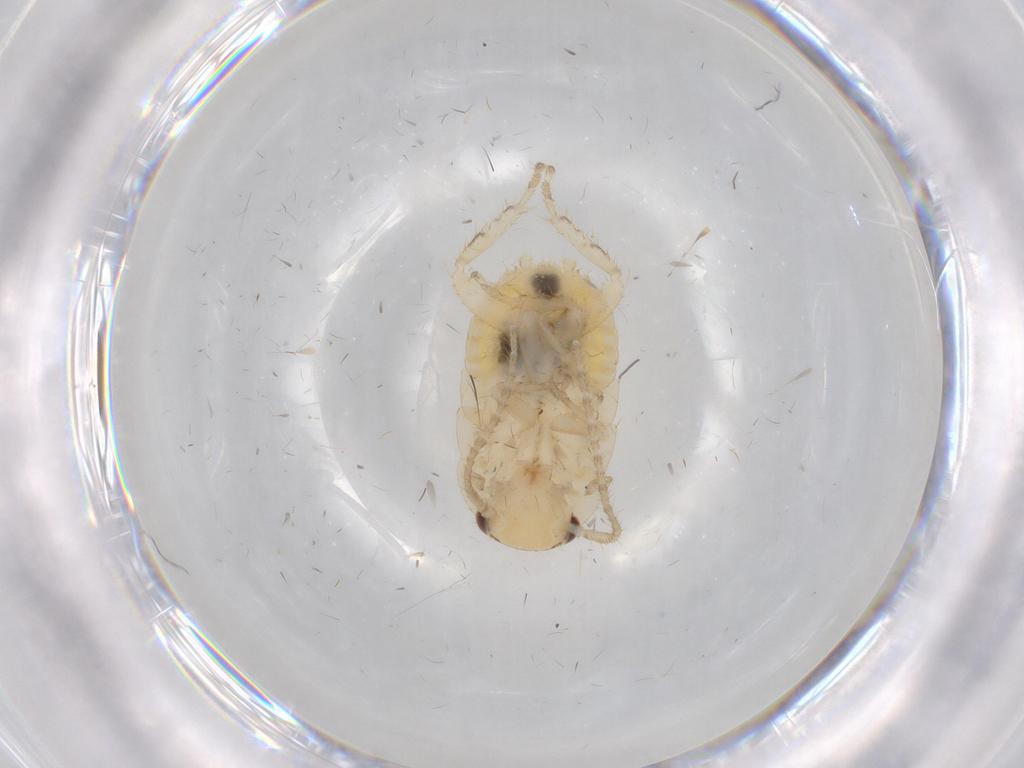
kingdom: Animalia
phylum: Arthropoda
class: Insecta
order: Blattodea
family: Ectobiidae
